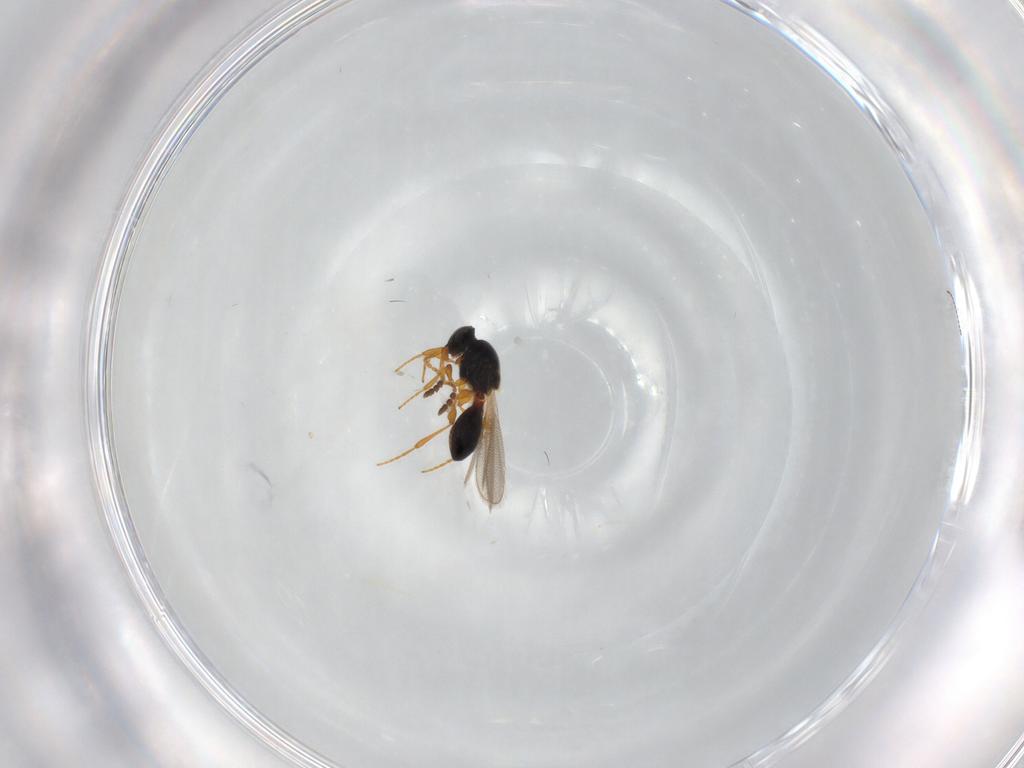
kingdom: Animalia
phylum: Arthropoda
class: Insecta
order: Hymenoptera
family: Platygastridae
